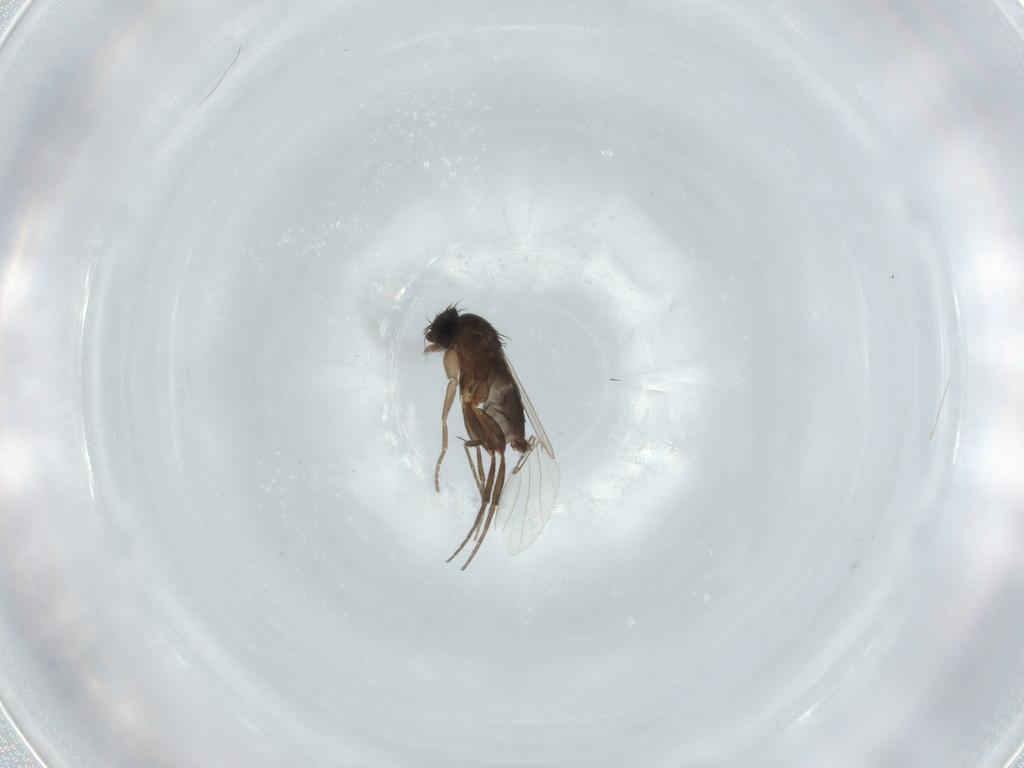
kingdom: Animalia
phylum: Arthropoda
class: Insecta
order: Diptera
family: Phoridae
